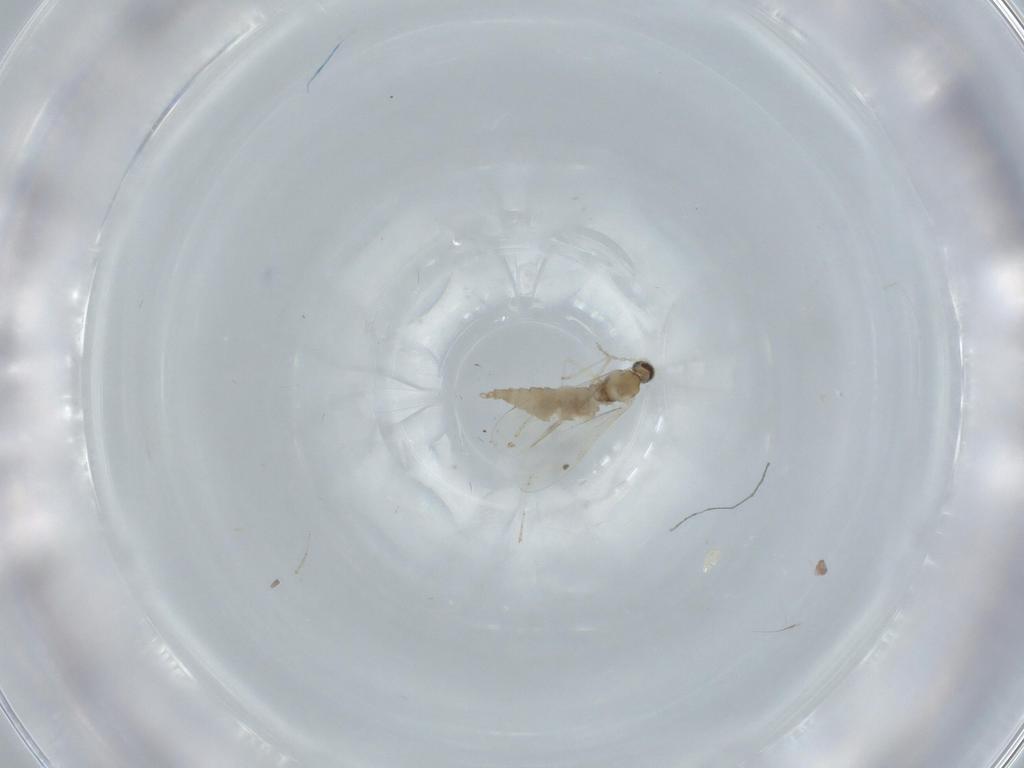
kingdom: Animalia
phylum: Arthropoda
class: Insecta
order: Diptera
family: Cecidomyiidae
